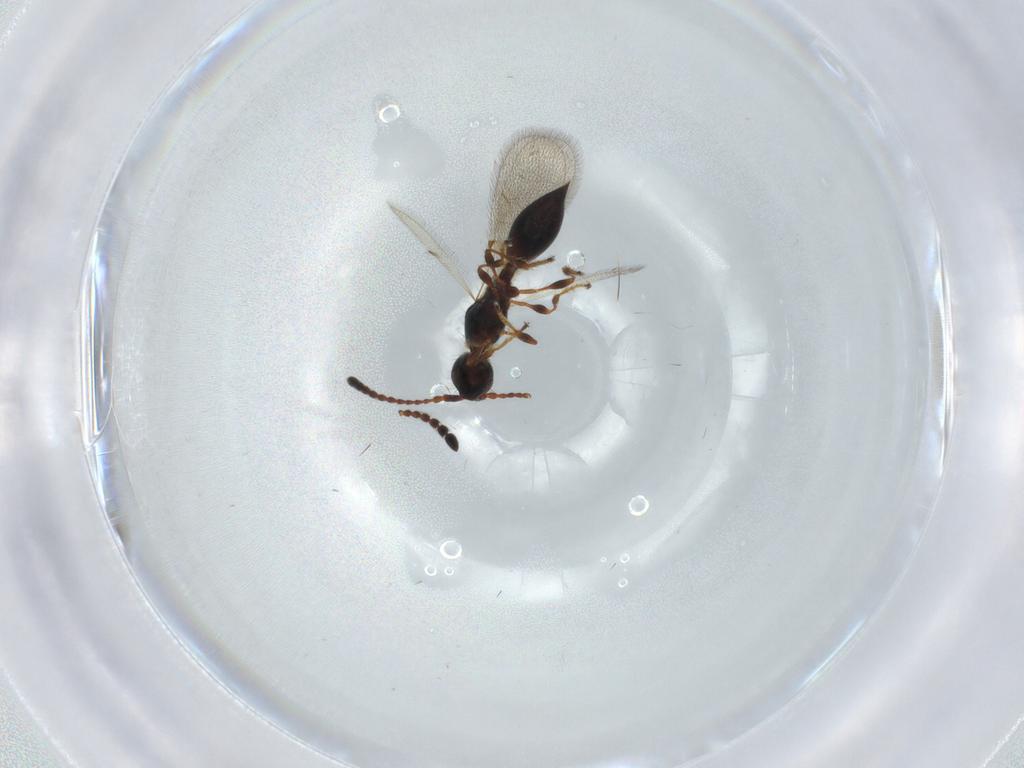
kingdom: Animalia
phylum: Arthropoda
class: Insecta
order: Hymenoptera
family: Diapriidae
